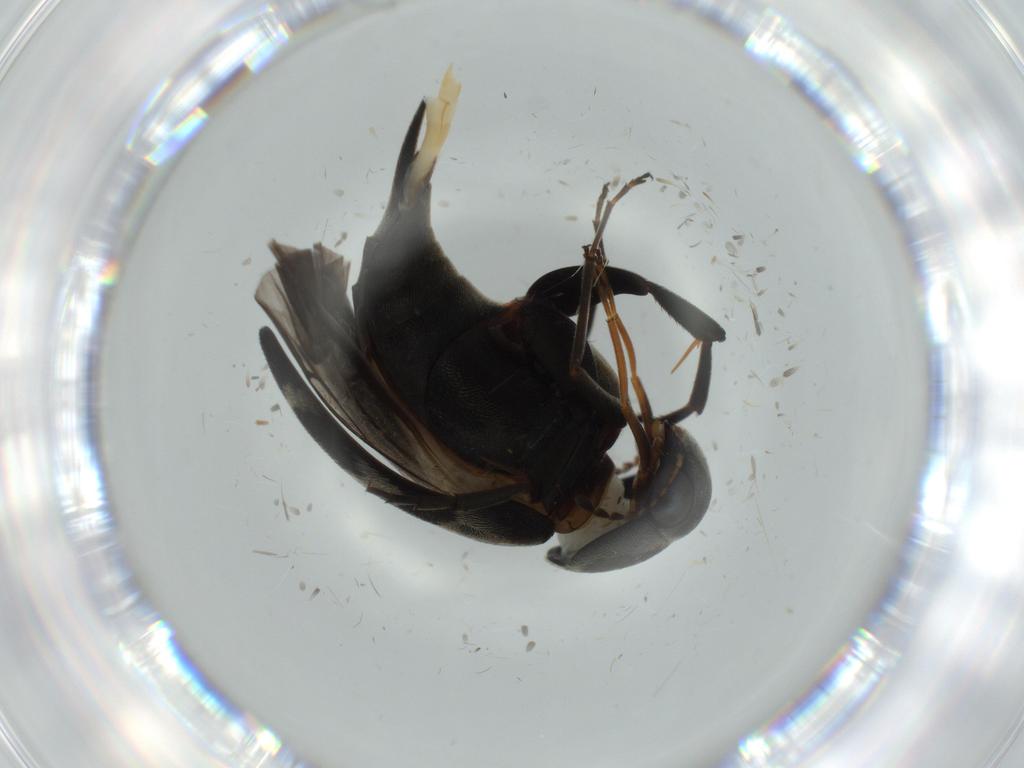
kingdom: Animalia
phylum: Arthropoda
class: Insecta
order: Coleoptera
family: Mordellidae
